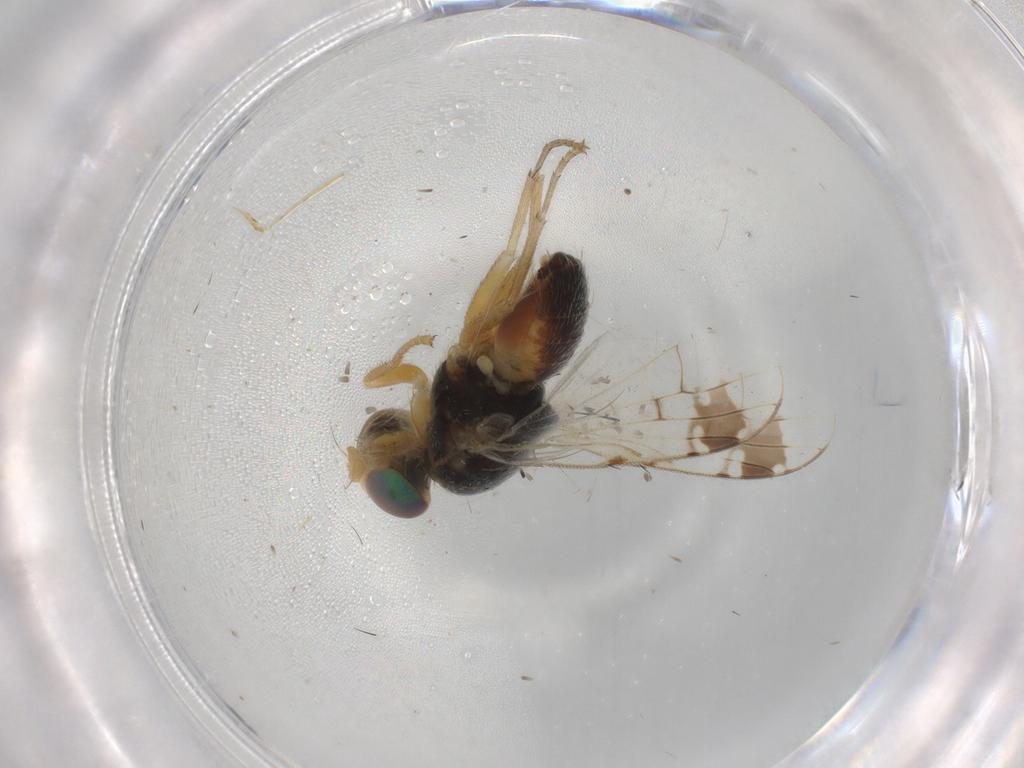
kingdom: Animalia
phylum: Arthropoda
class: Insecta
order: Diptera
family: Tephritidae
